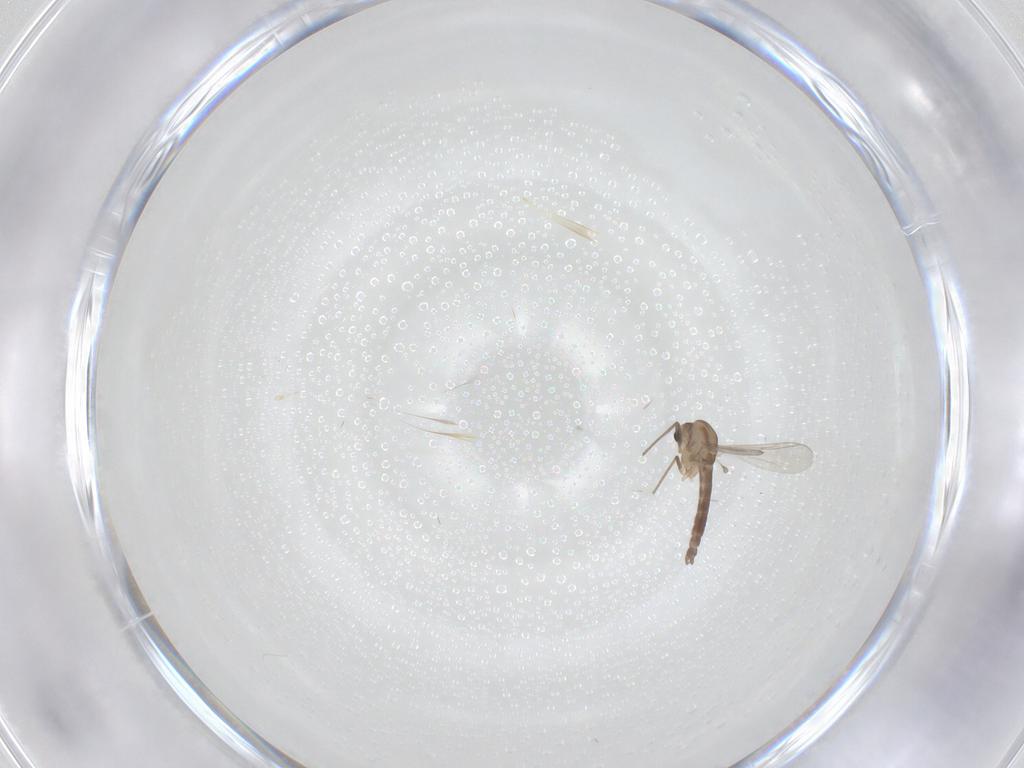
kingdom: Animalia
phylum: Arthropoda
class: Insecta
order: Diptera
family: Chironomidae
